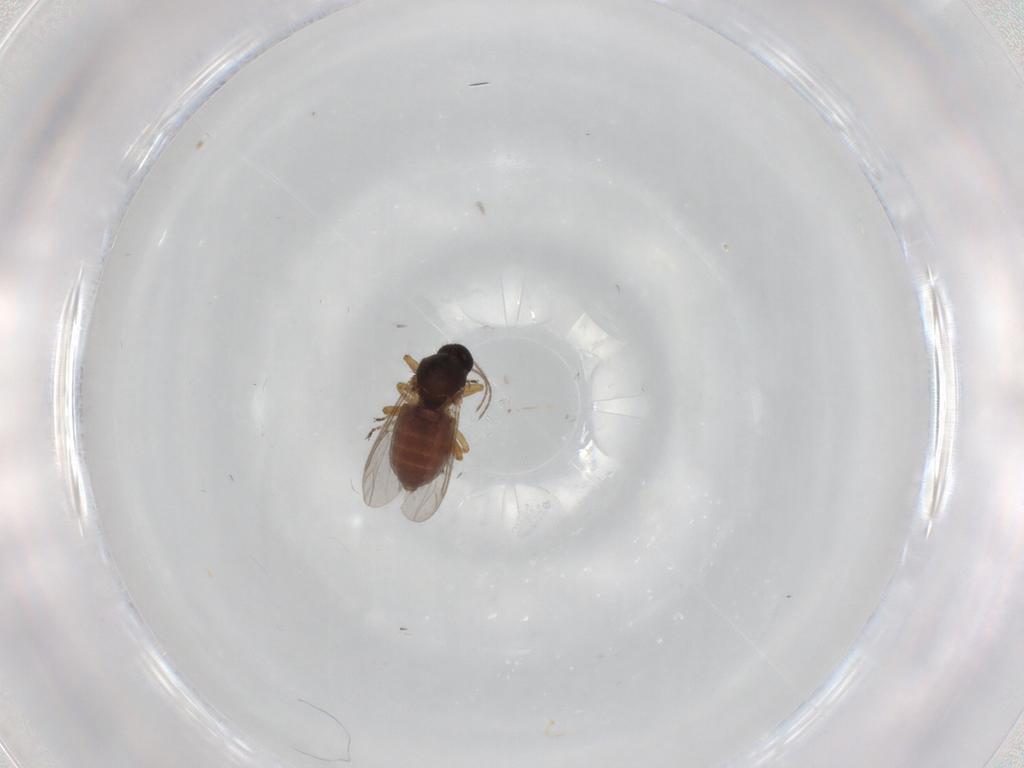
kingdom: Animalia
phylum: Arthropoda
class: Insecta
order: Diptera
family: Ceratopogonidae
